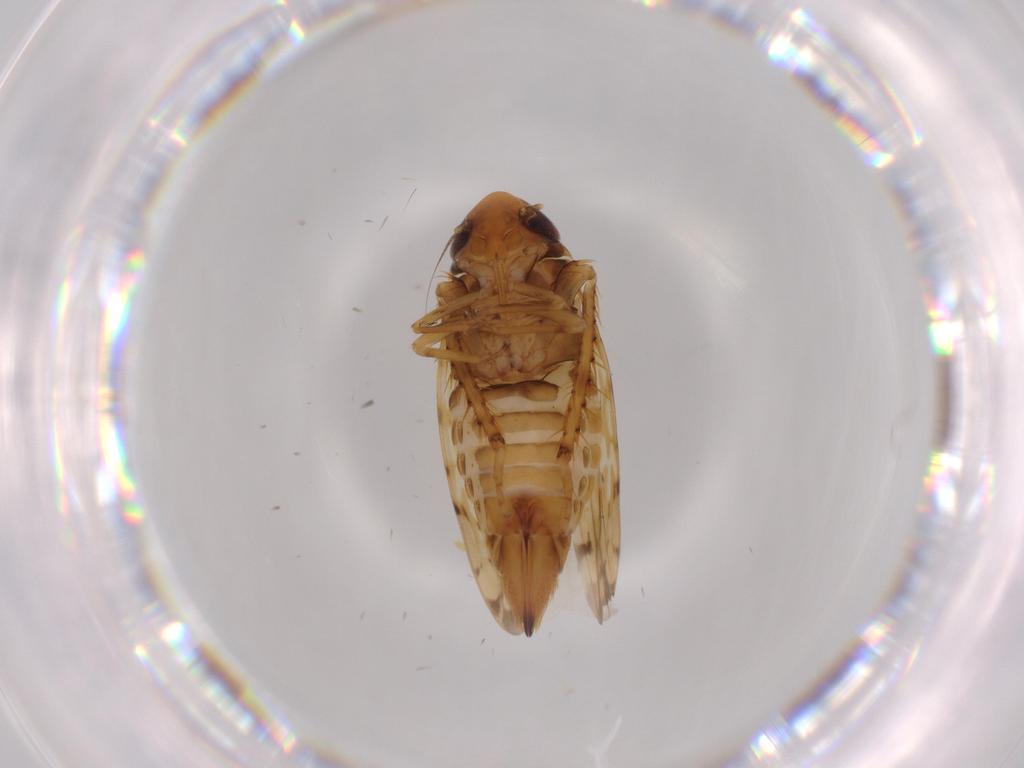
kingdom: Animalia
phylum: Arthropoda
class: Insecta
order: Hemiptera
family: Cicadellidae
